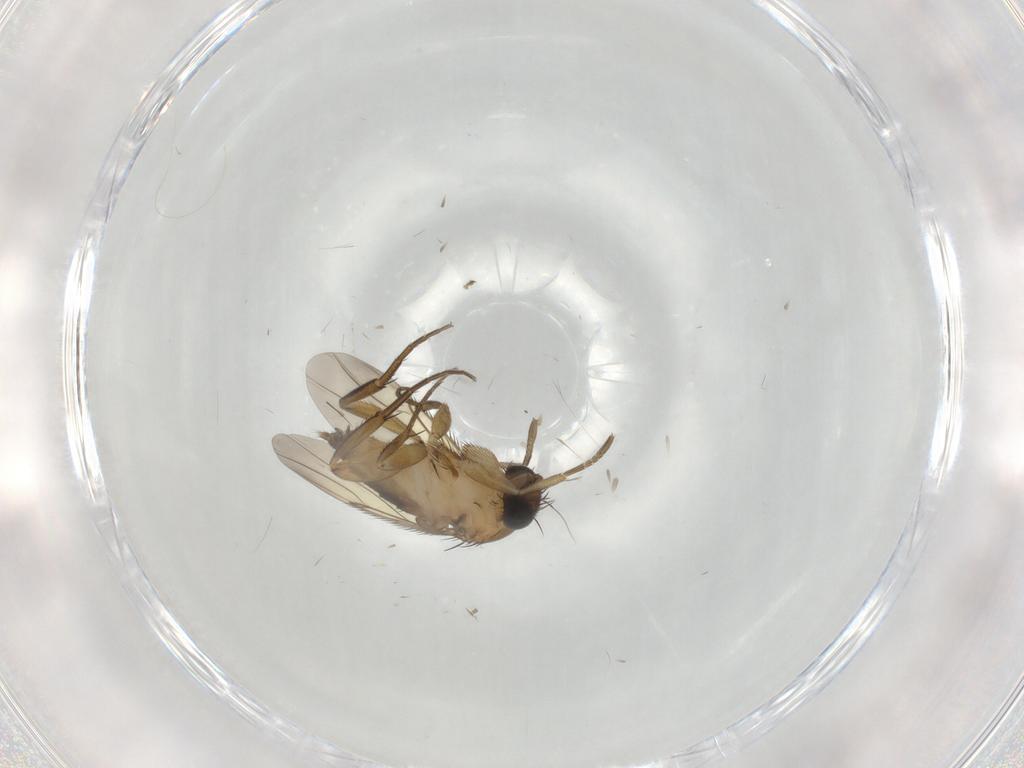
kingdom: Animalia
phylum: Arthropoda
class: Insecta
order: Diptera
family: Phoridae
